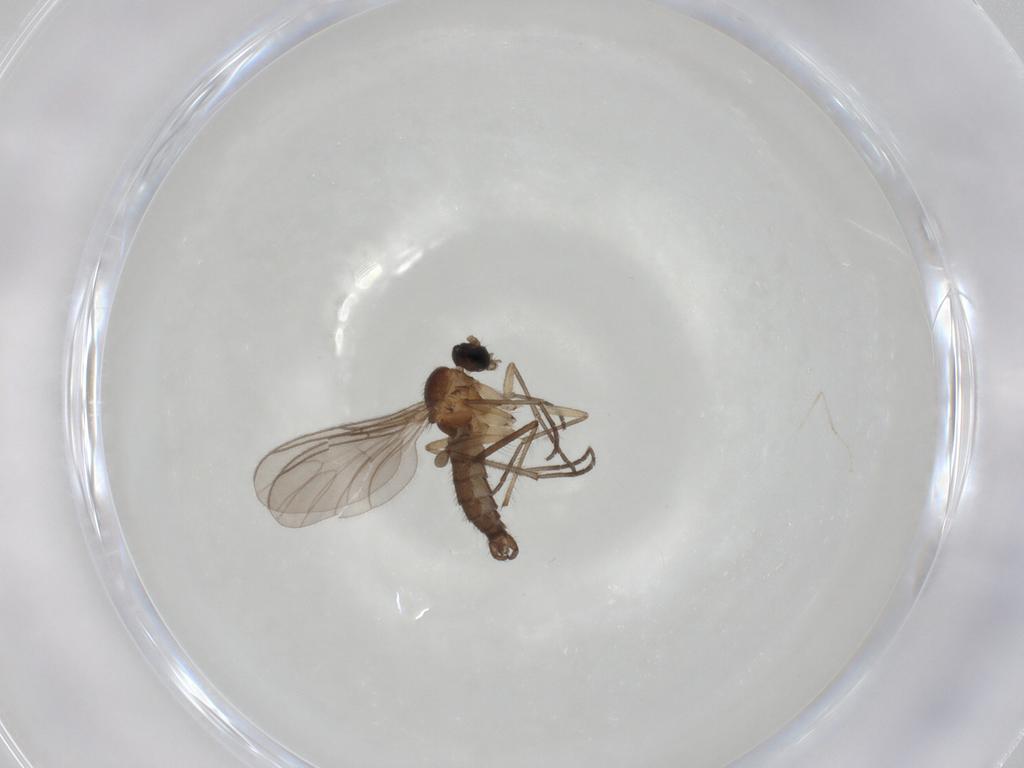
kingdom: Animalia
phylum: Arthropoda
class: Insecta
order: Diptera
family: Sciaridae
